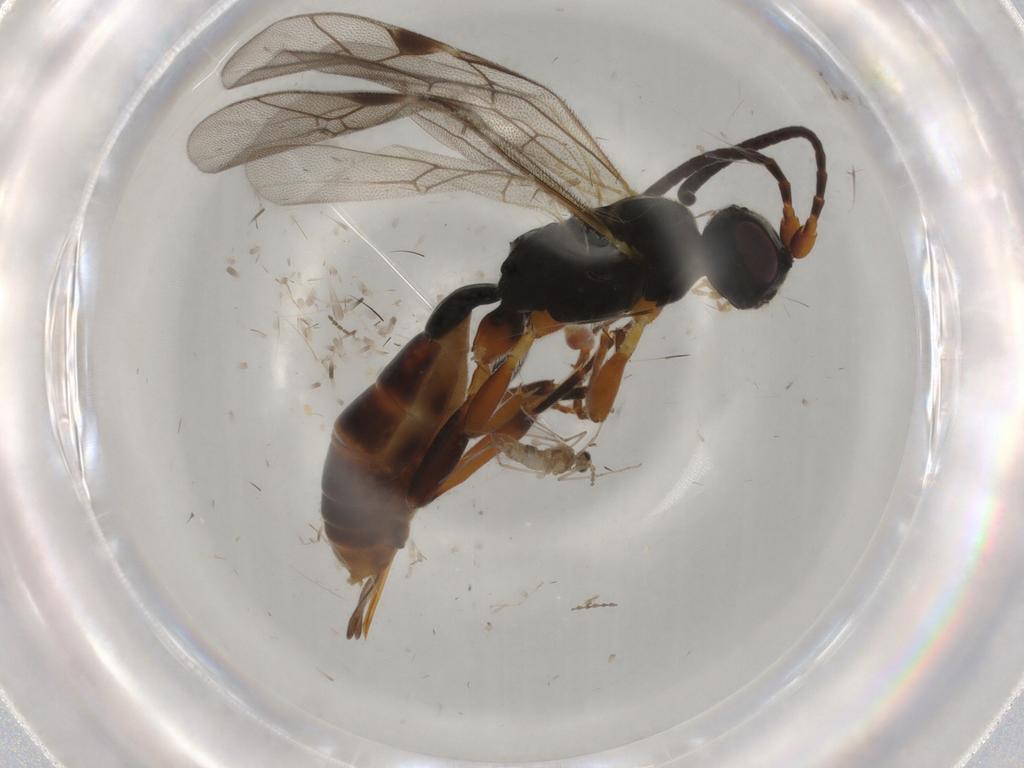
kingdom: Animalia
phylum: Arthropoda
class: Insecta
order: Hymenoptera
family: Ichneumonidae
